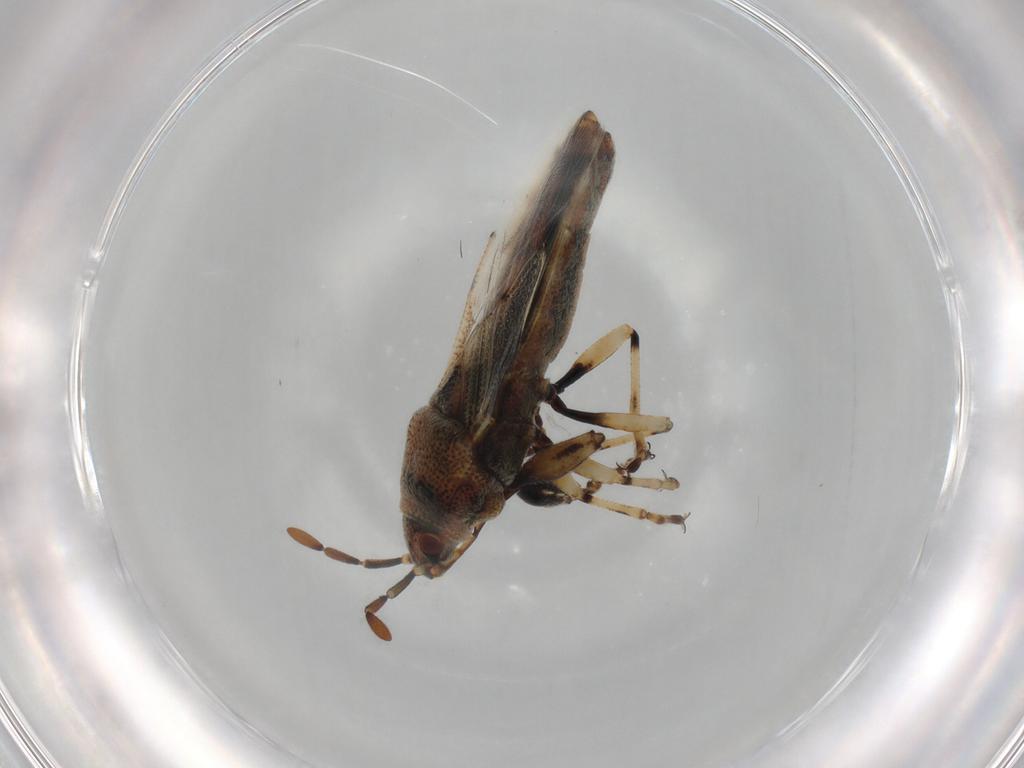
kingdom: Animalia
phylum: Arthropoda
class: Insecta
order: Hemiptera
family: Pachygronthidae
